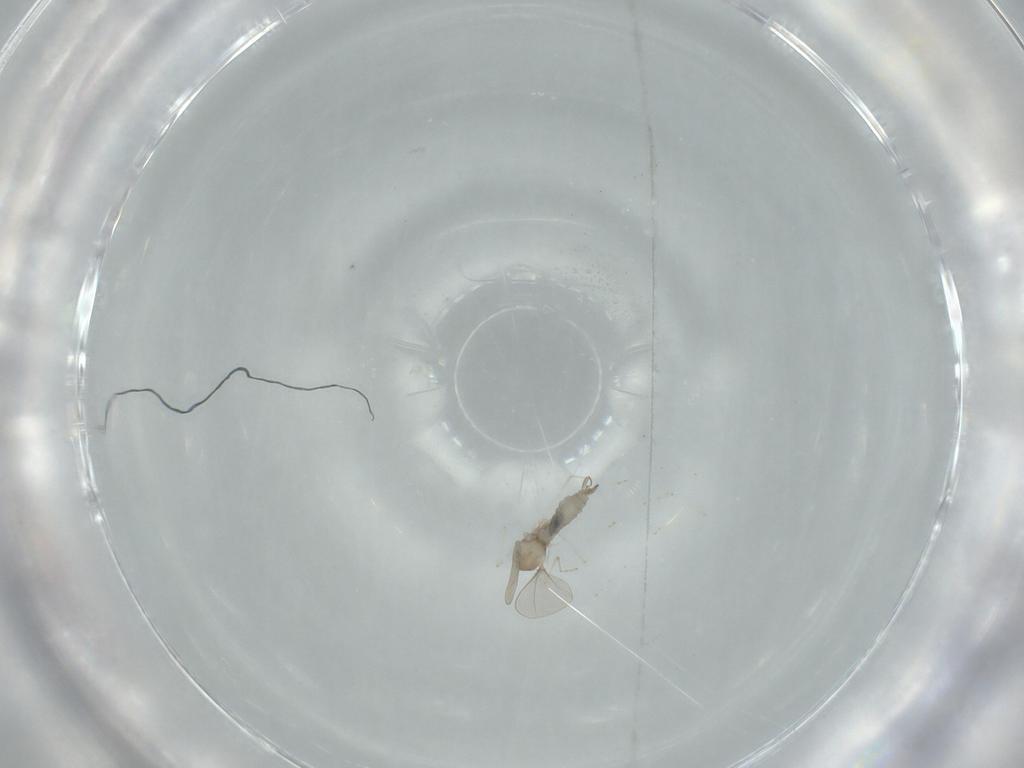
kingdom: Animalia
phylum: Arthropoda
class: Insecta
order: Diptera
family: Cecidomyiidae
